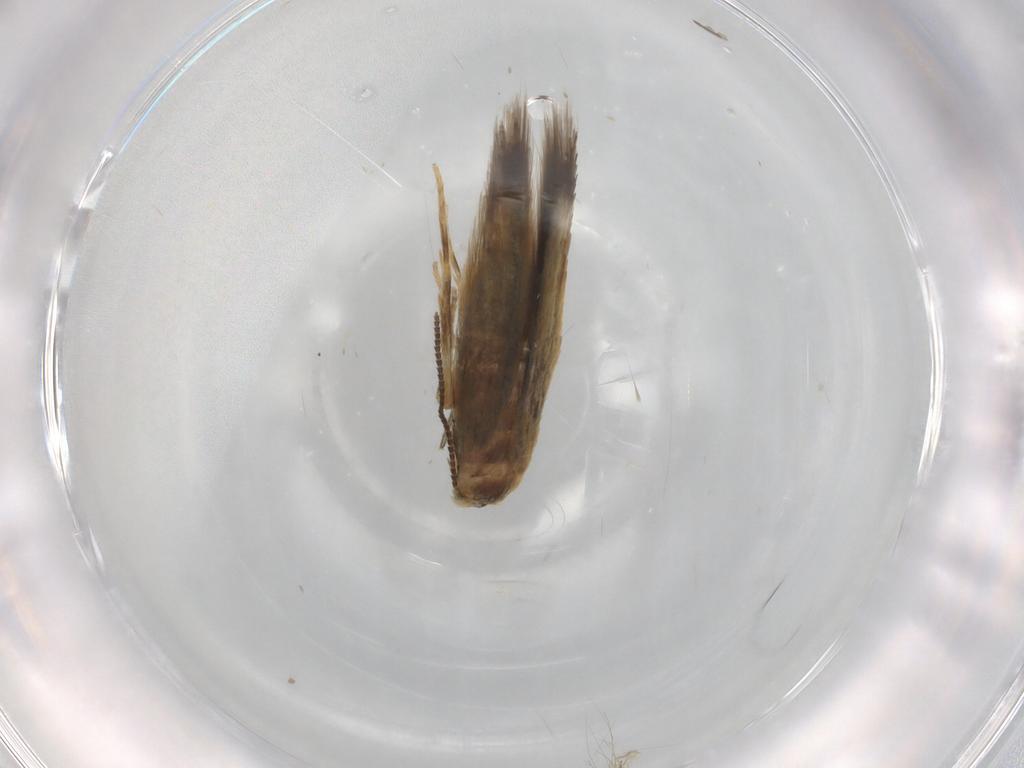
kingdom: Animalia
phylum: Arthropoda
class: Insecta
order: Lepidoptera
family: Nepticulidae
